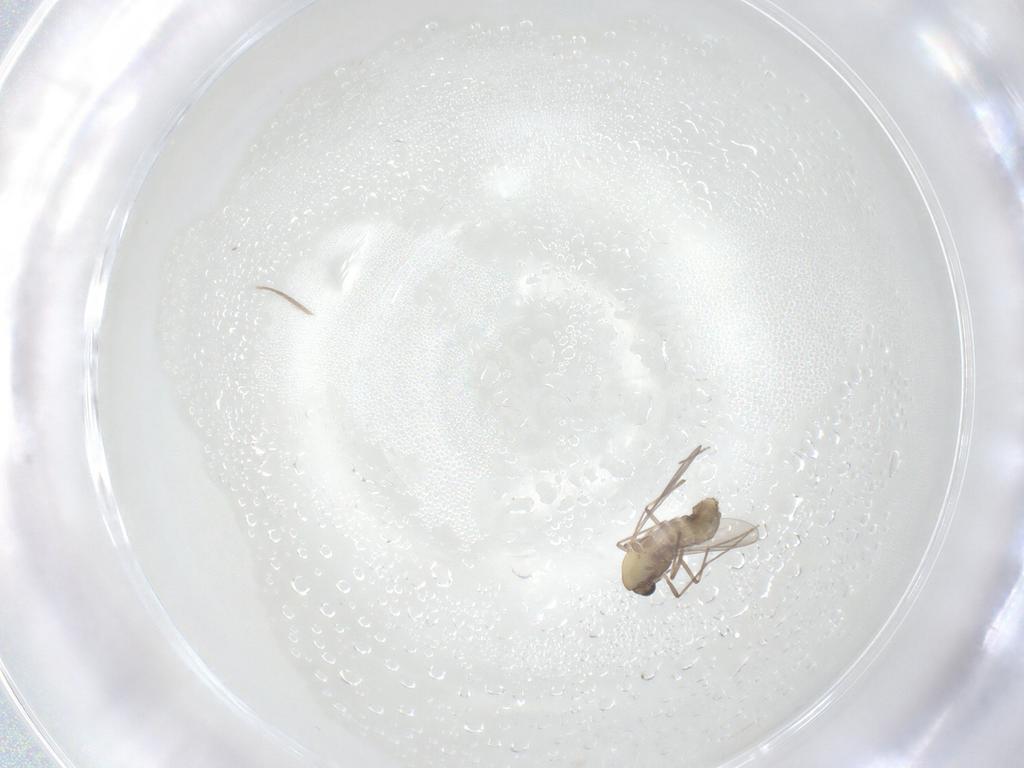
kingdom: Animalia
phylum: Arthropoda
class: Insecta
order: Diptera
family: Chironomidae
